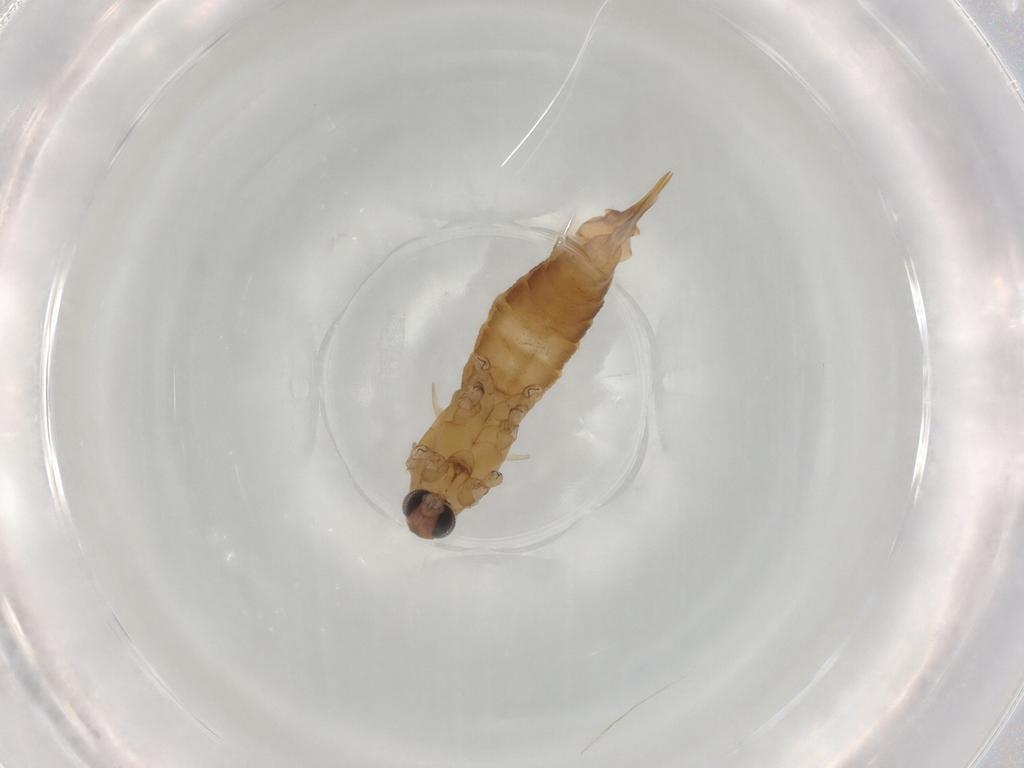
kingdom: Animalia
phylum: Arthropoda
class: Insecta
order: Diptera
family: Limoniidae
